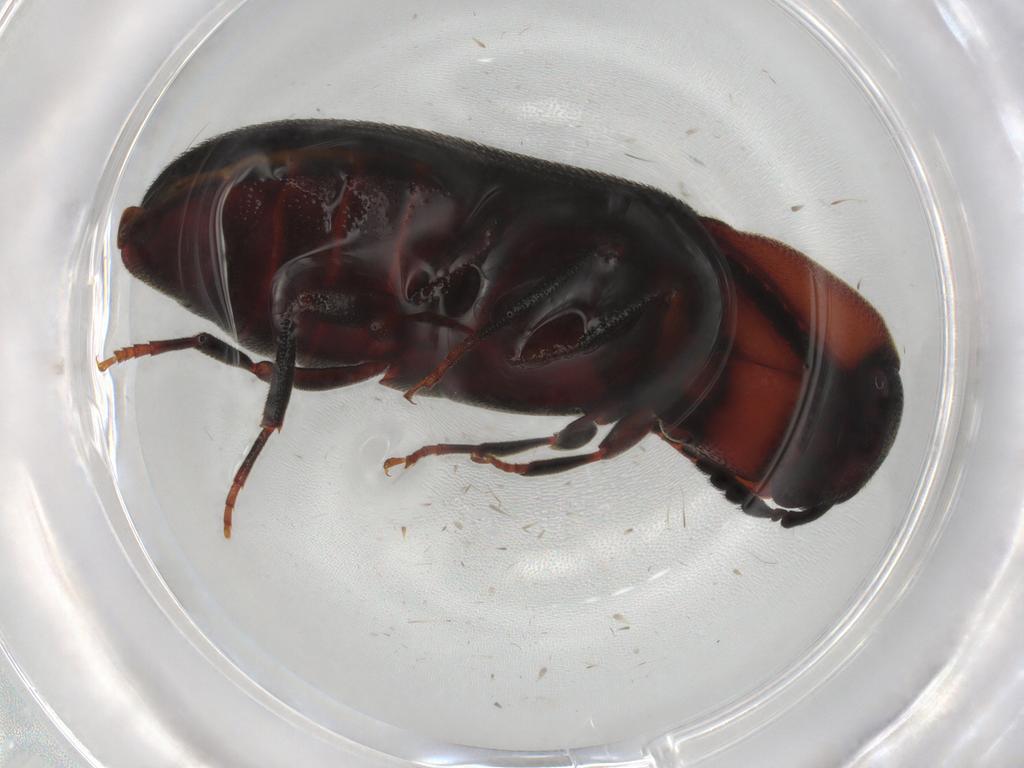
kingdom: Animalia
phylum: Arthropoda
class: Insecta
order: Coleoptera
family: Eucnemidae
